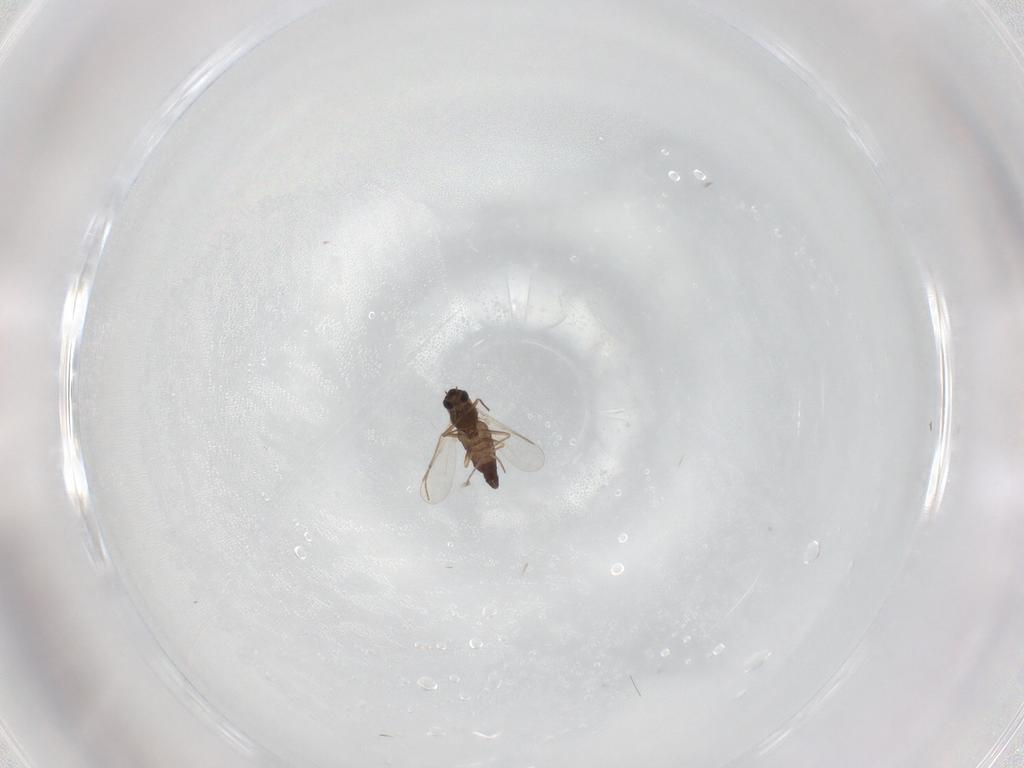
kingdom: Animalia
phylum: Arthropoda
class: Insecta
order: Diptera
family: Chironomidae
